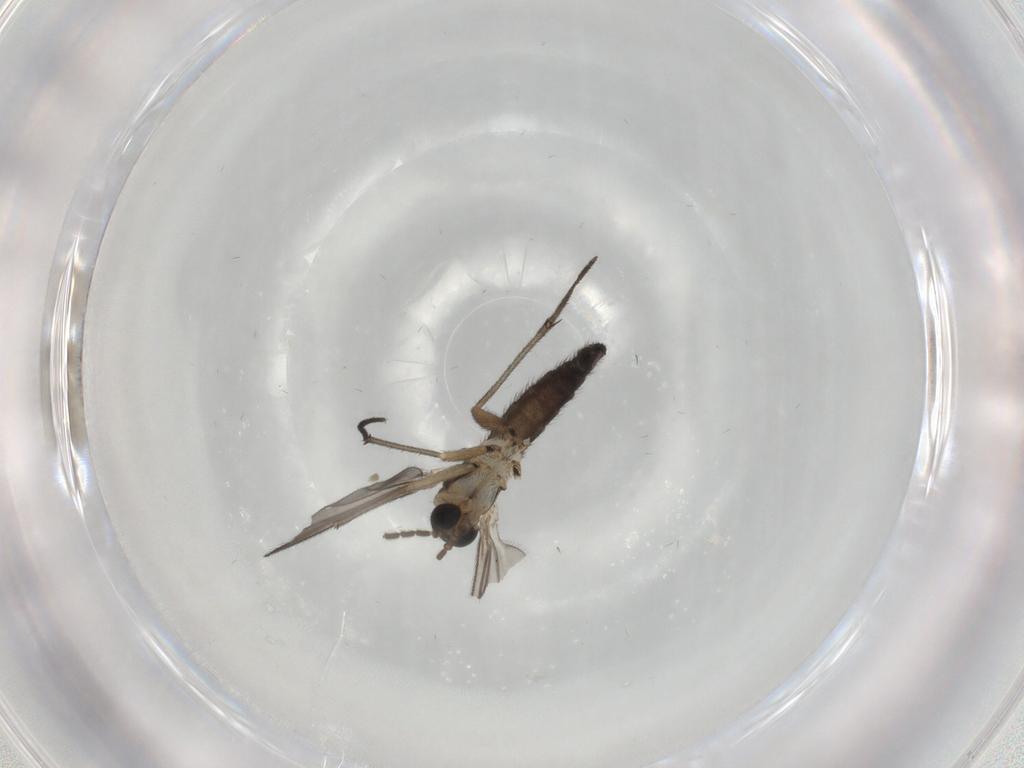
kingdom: Animalia
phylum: Arthropoda
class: Insecta
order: Diptera
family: Sciaridae
